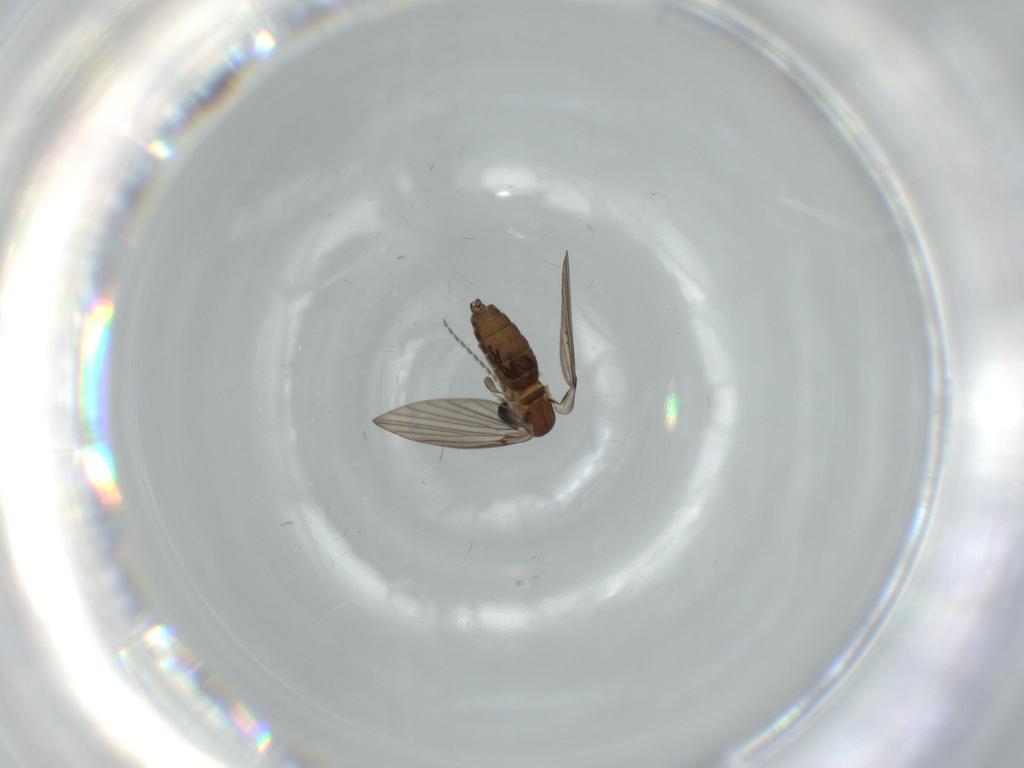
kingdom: Animalia
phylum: Arthropoda
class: Insecta
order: Diptera
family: Psychodidae
